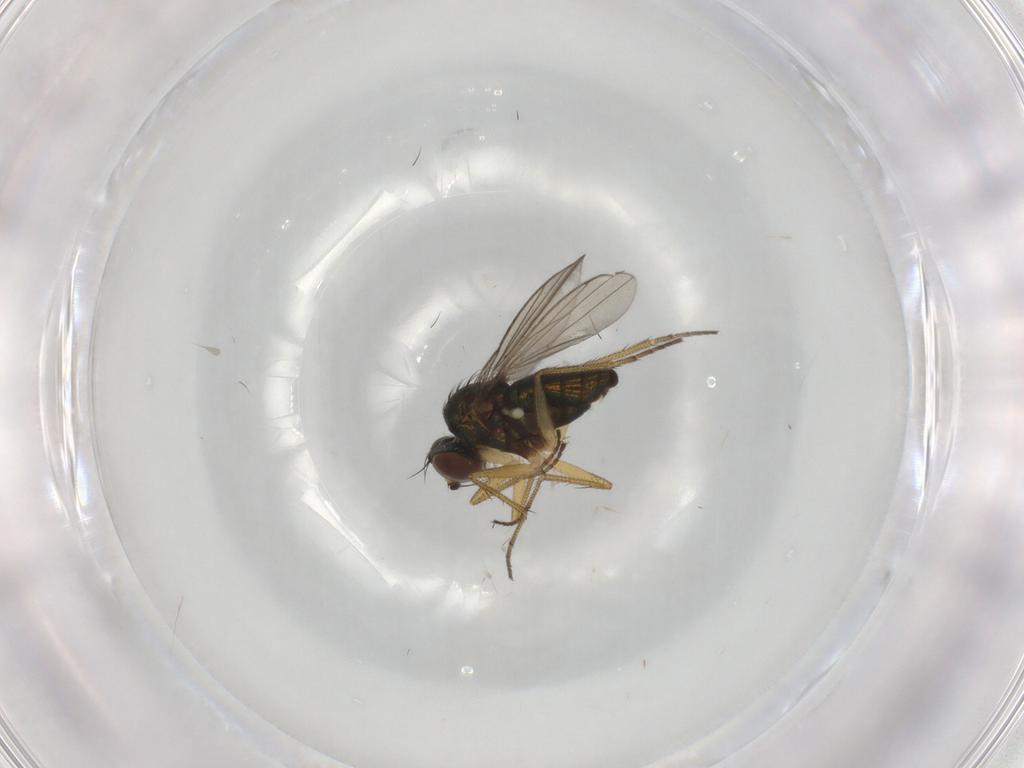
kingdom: Animalia
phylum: Arthropoda
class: Insecta
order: Diptera
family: Dolichopodidae
